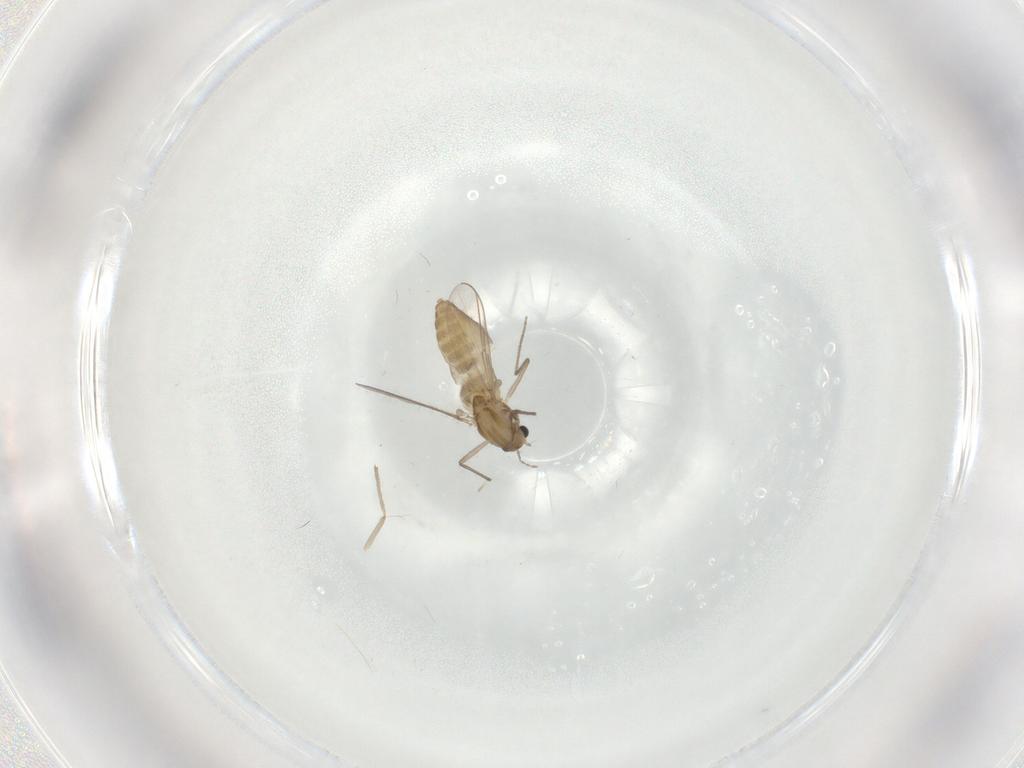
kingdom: Animalia
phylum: Arthropoda
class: Insecta
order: Diptera
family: Chironomidae
